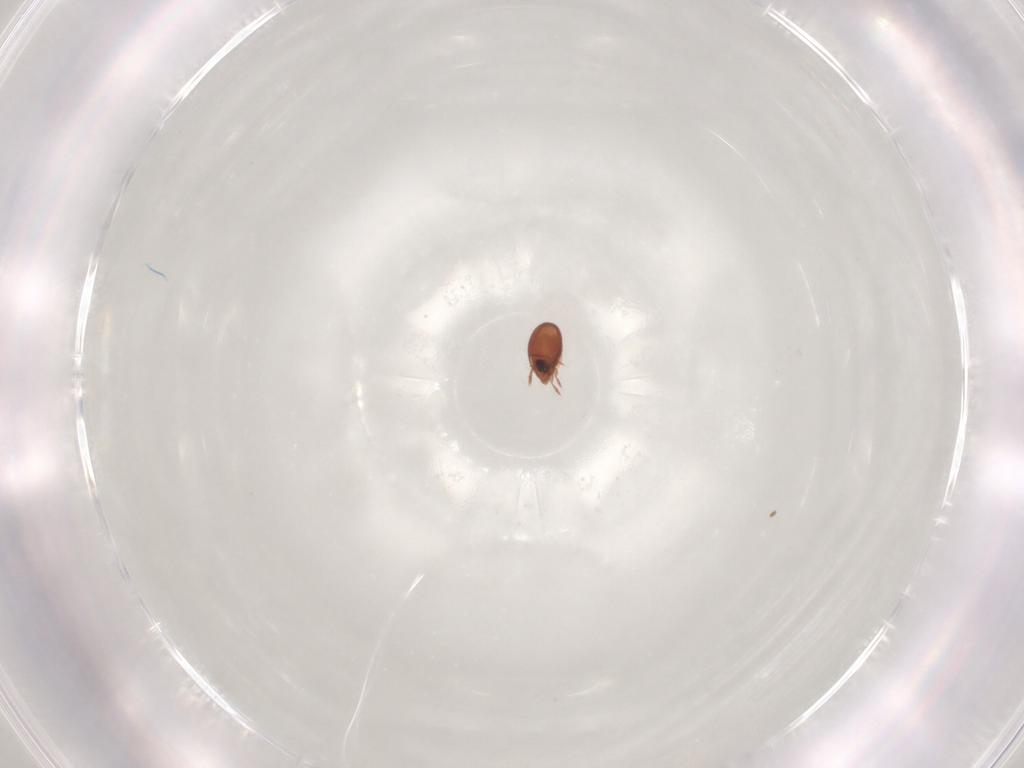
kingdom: Animalia
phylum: Arthropoda
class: Arachnida
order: Sarcoptiformes
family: Scheloribatidae
